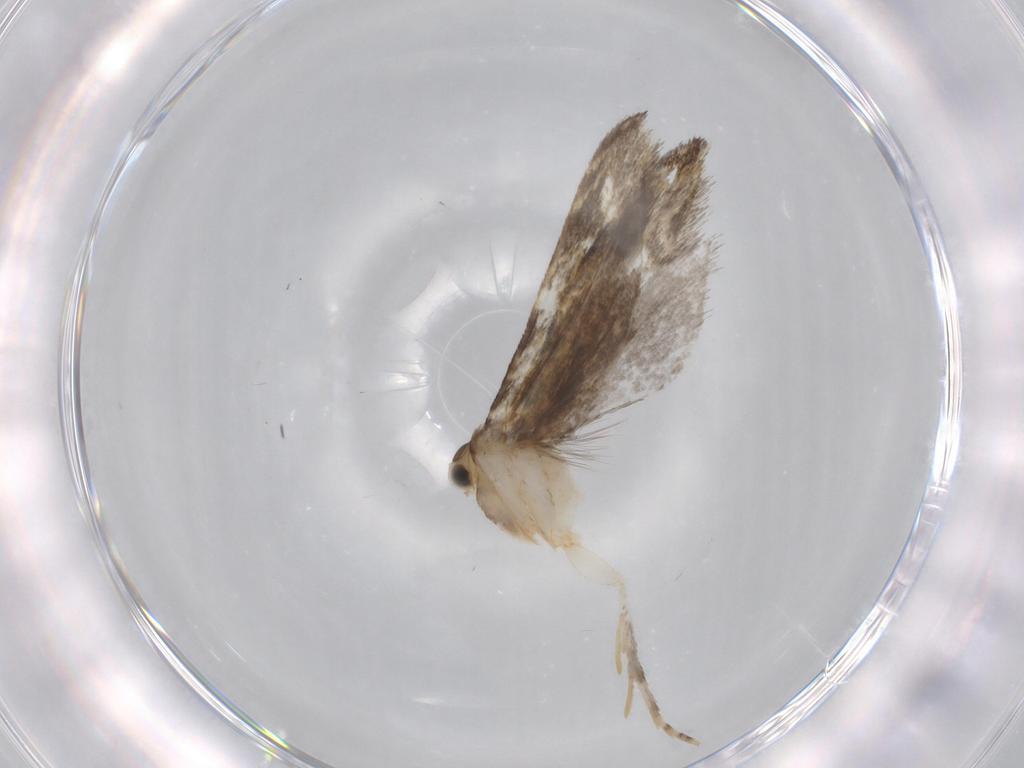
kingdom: Animalia
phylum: Arthropoda
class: Insecta
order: Lepidoptera
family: Tineidae
